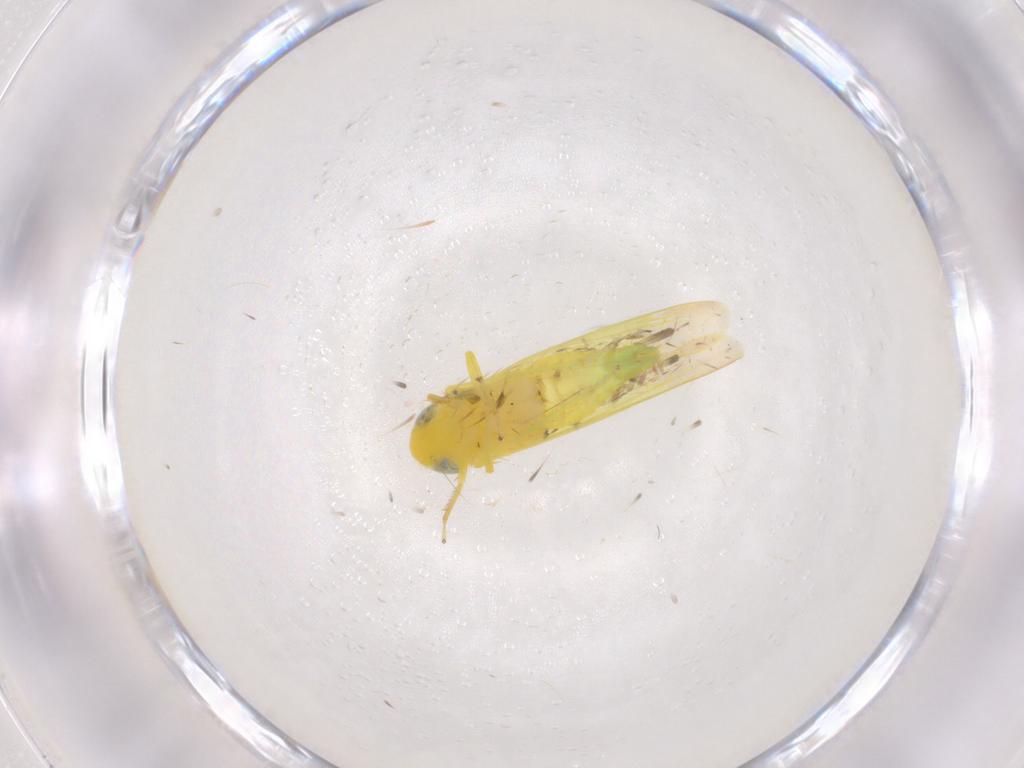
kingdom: Animalia
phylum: Arthropoda
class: Insecta
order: Hemiptera
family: Cicadellidae
